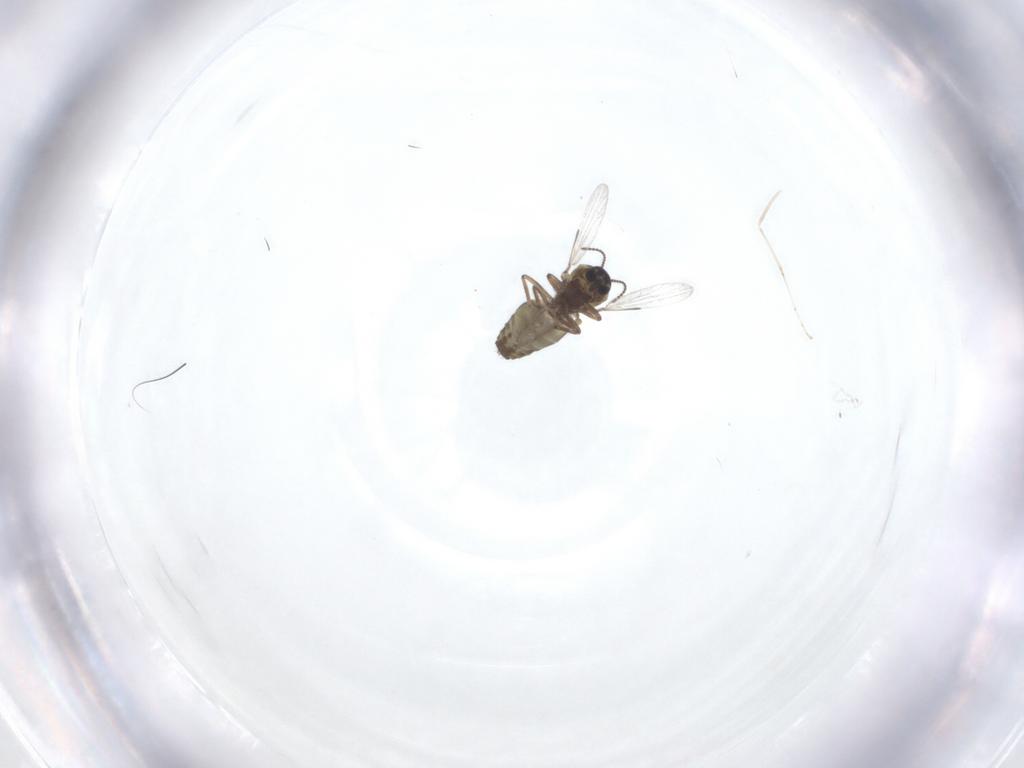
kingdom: Animalia
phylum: Arthropoda
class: Insecta
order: Diptera
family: Ceratopogonidae
